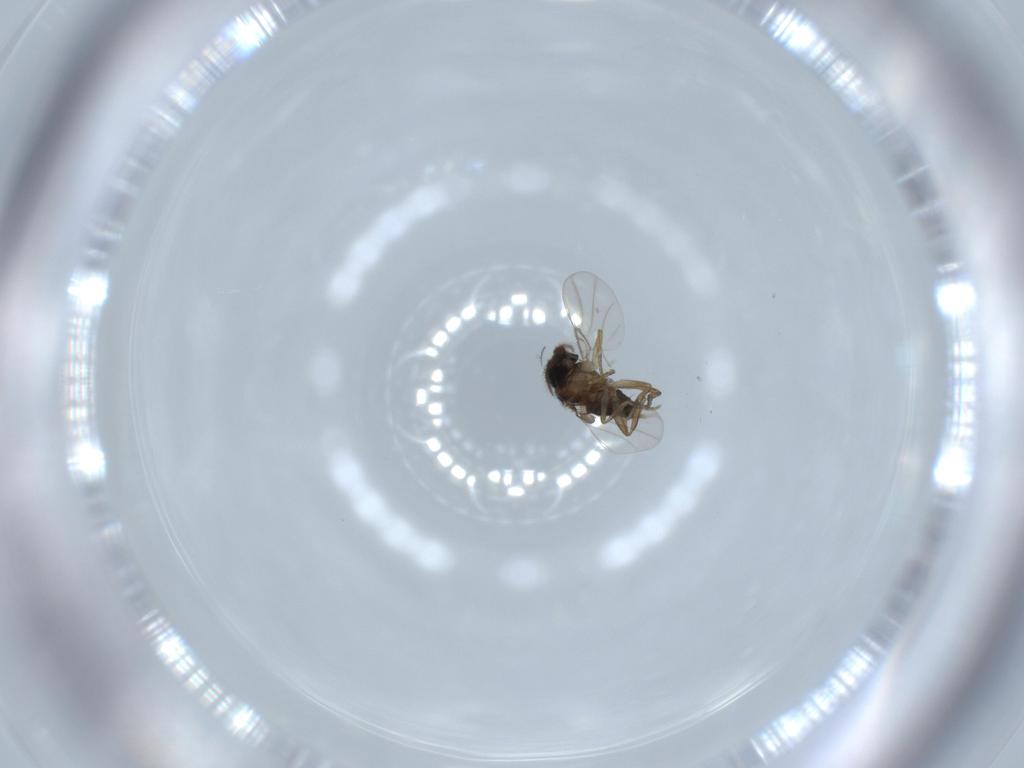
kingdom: Animalia
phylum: Arthropoda
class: Insecta
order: Diptera
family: Phoridae
